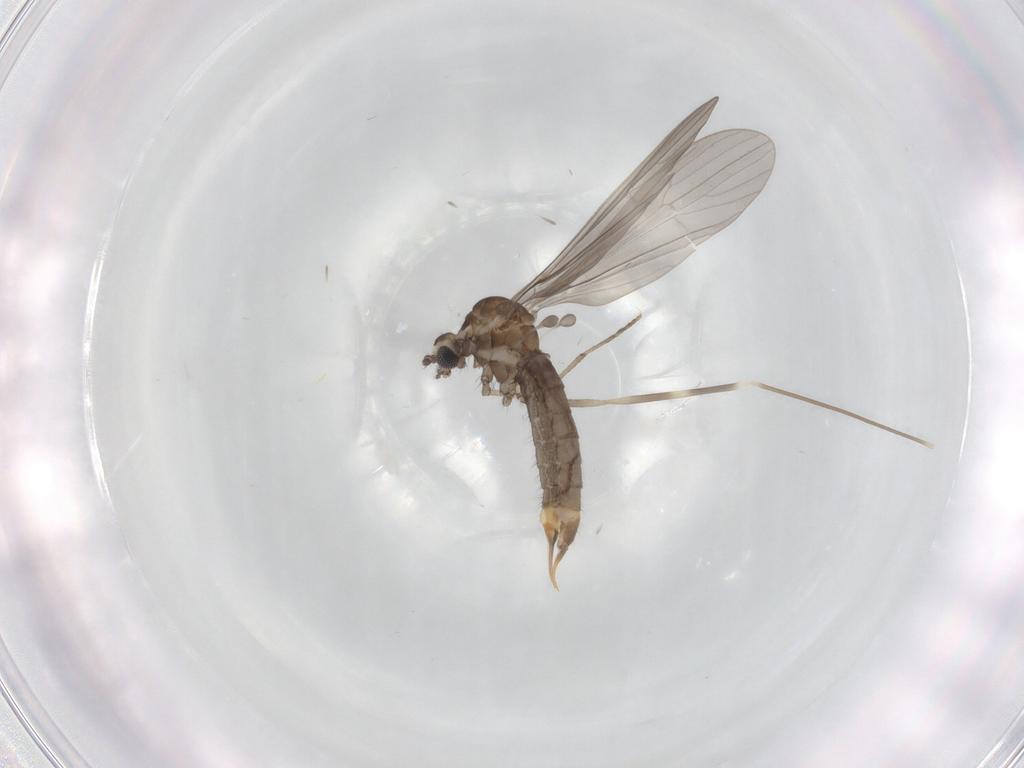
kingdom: Animalia
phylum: Arthropoda
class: Insecta
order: Diptera
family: Limoniidae
